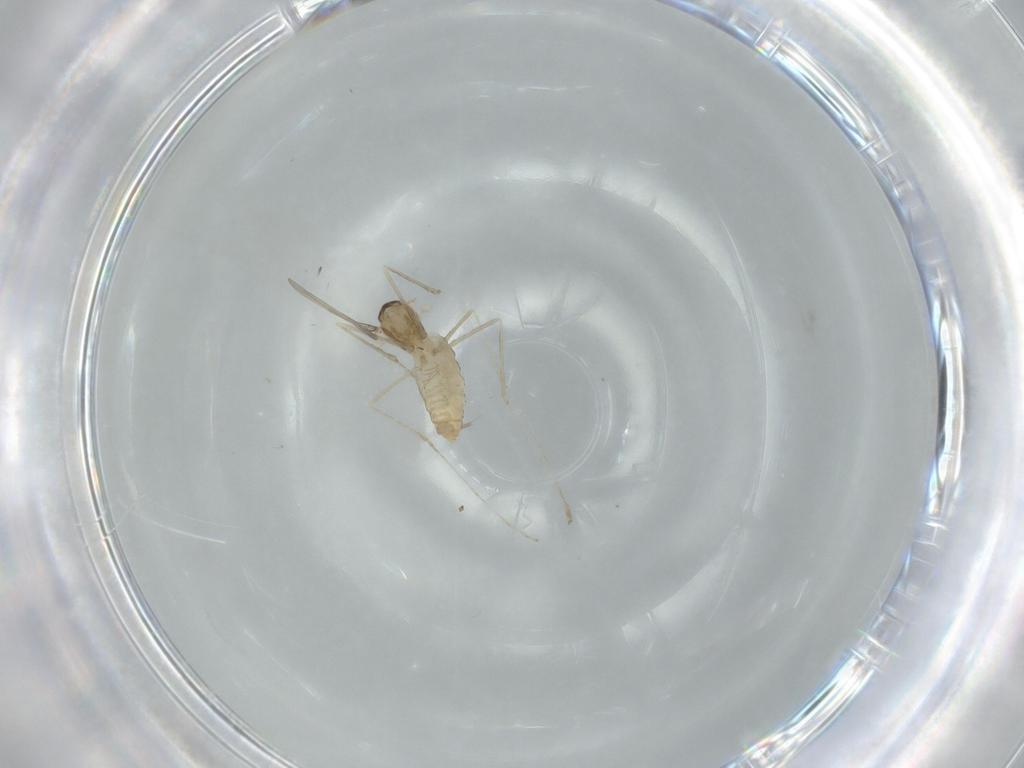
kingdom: Animalia
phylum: Arthropoda
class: Insecta
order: Diptera
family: Cecidomyiidae
